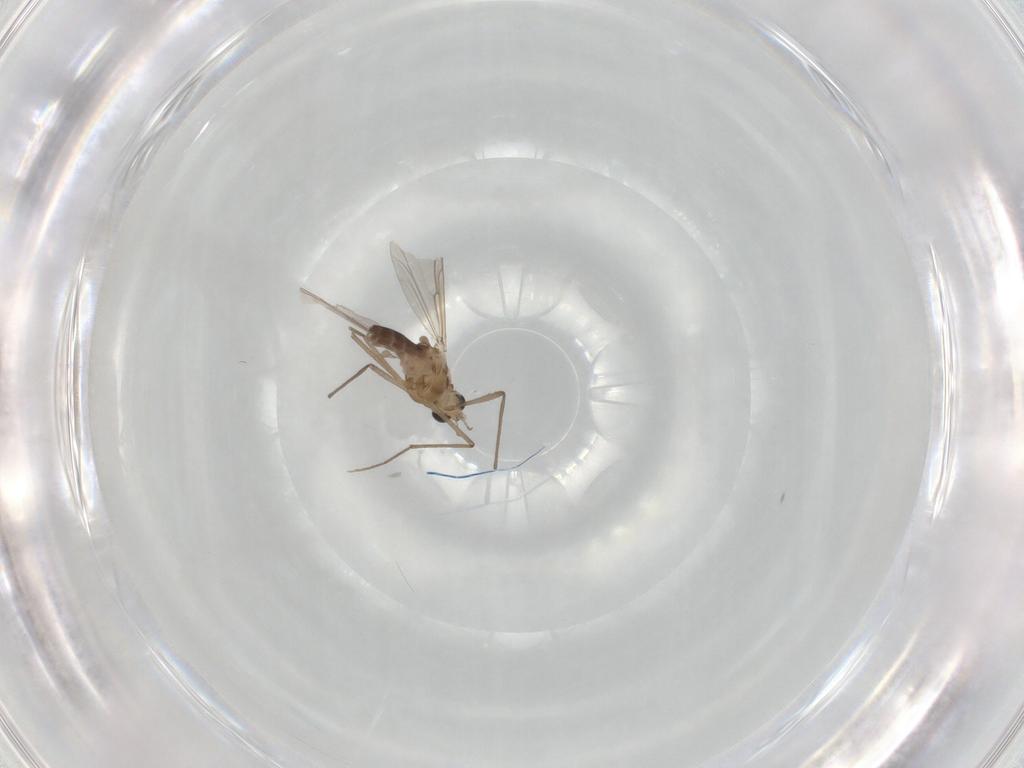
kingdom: Animalia
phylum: Arthropoda
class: Insecta
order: Diptera
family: Chironomidae
